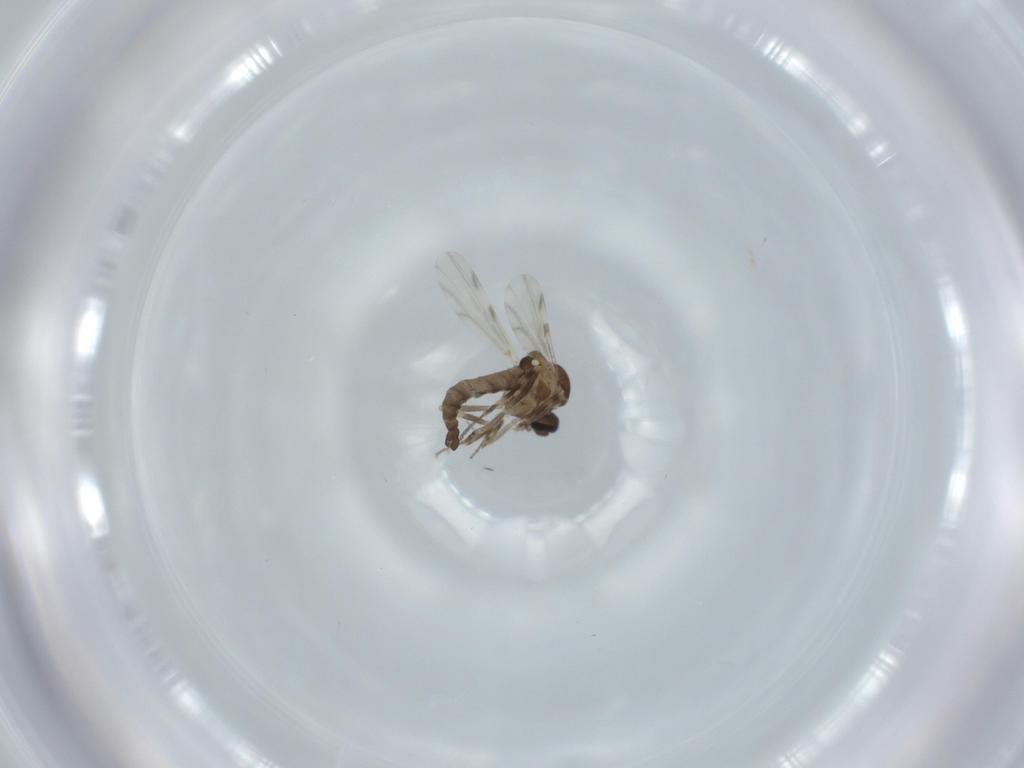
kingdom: Animalia
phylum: Arthropoda
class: Insecta
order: Diptera
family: Ceratopogonidae
